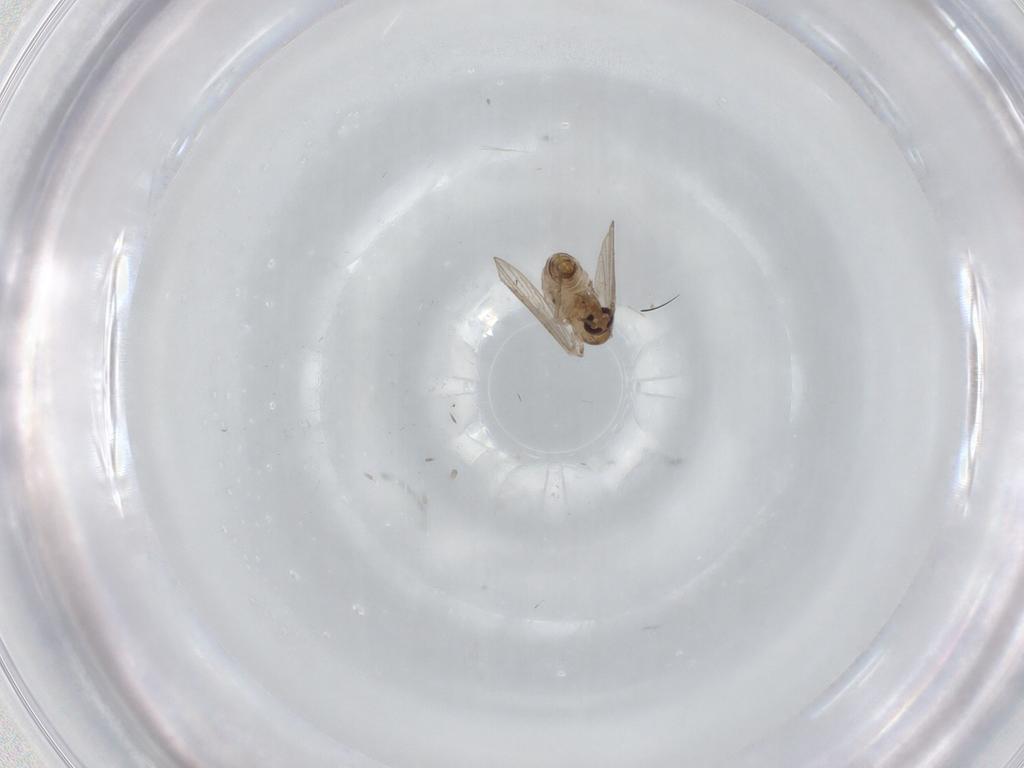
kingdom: Animalia
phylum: Arthropoda
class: Insecta
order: Diptera
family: Psychodidae
